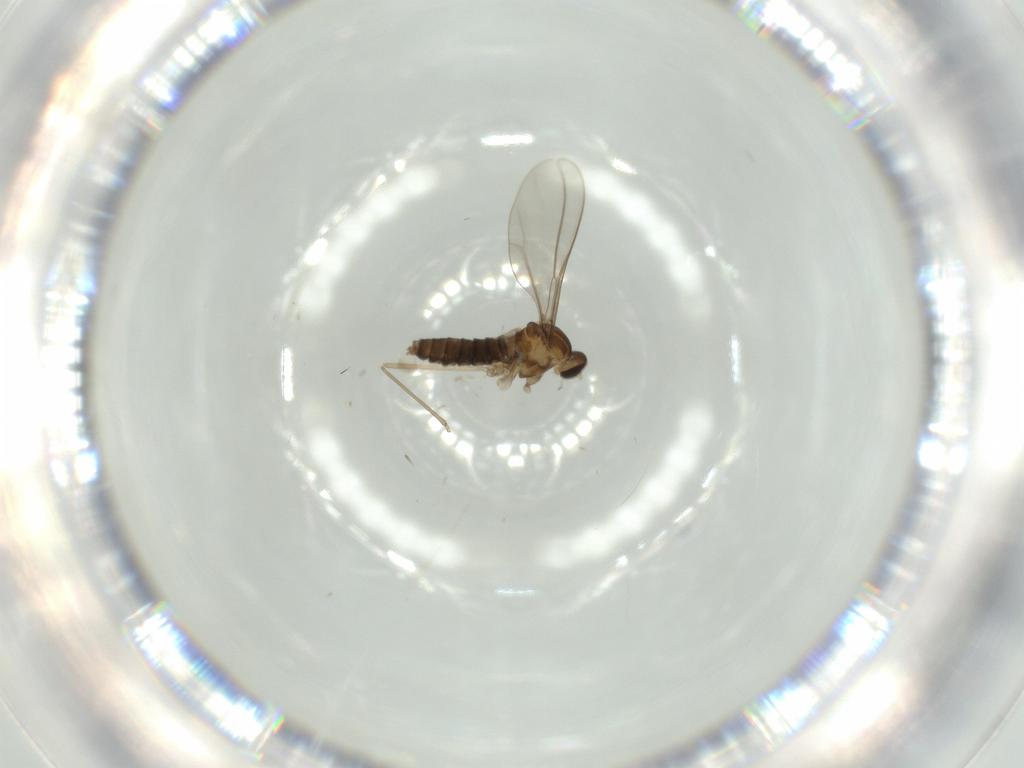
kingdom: Animalia
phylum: Arthropoda
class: Insecta
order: Diptera
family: Cecidomyiidae
